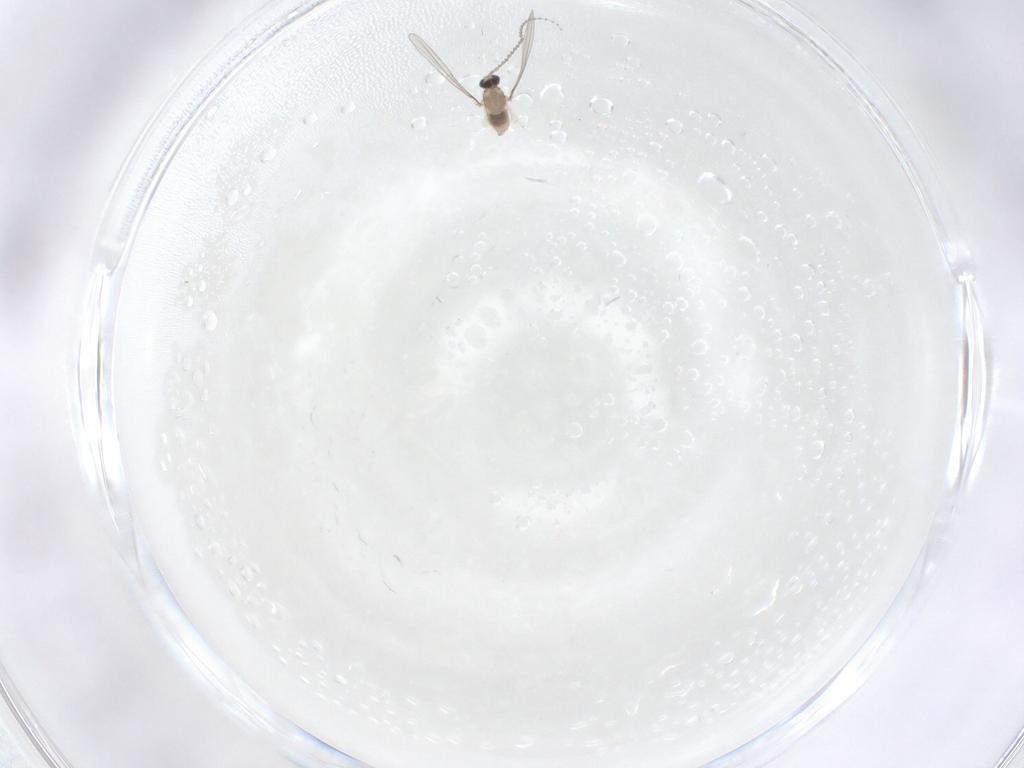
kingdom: Animalia
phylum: Arthropoda
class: Insecta
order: Diptera
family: Cecidomyiidae
